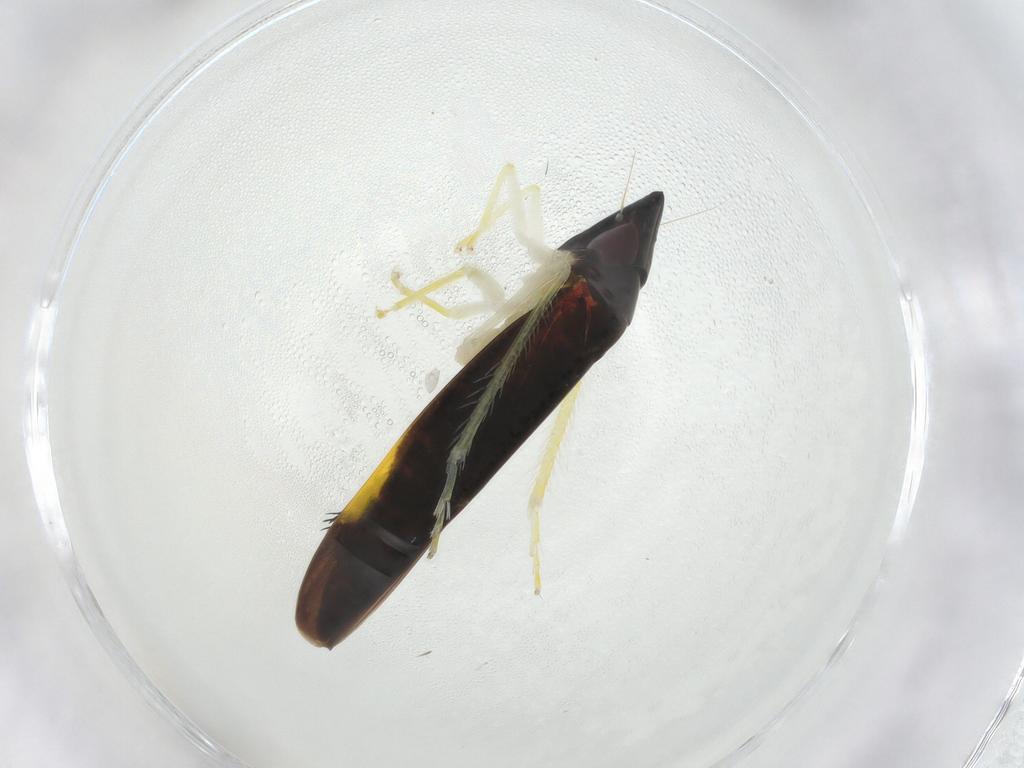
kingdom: Animalia
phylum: Arthropoda
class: Insecta
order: Hemiptera
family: Cicadellidae
